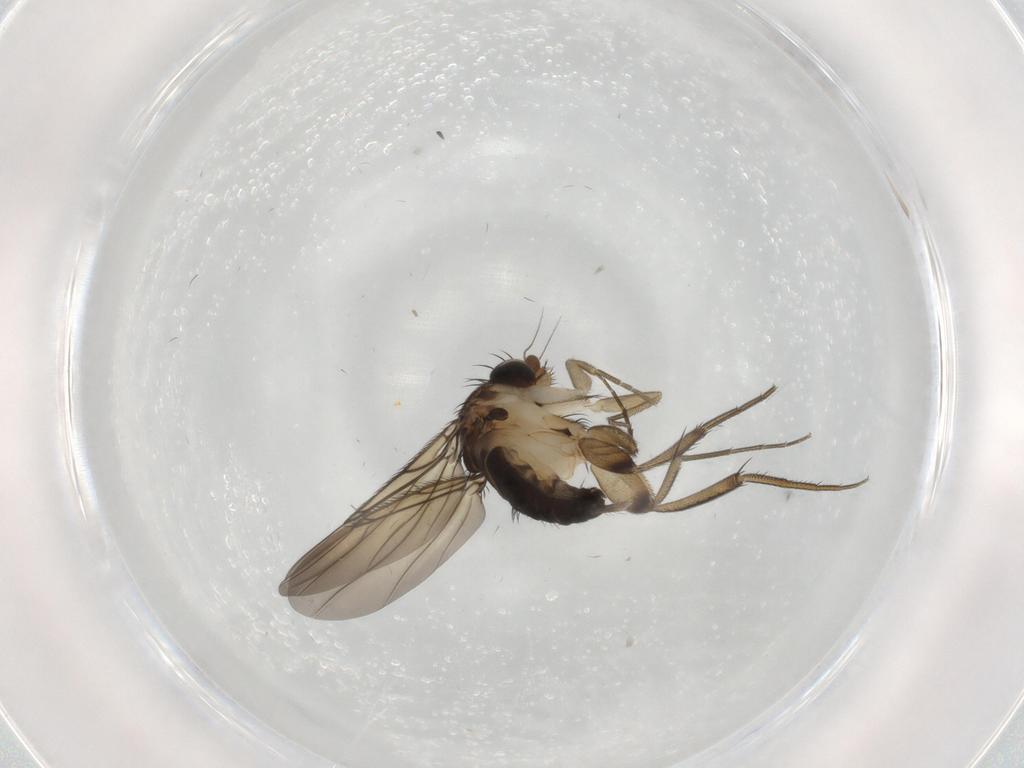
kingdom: Animalia
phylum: Arthropoda
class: Insecta
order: Diptera
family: Phoridae
